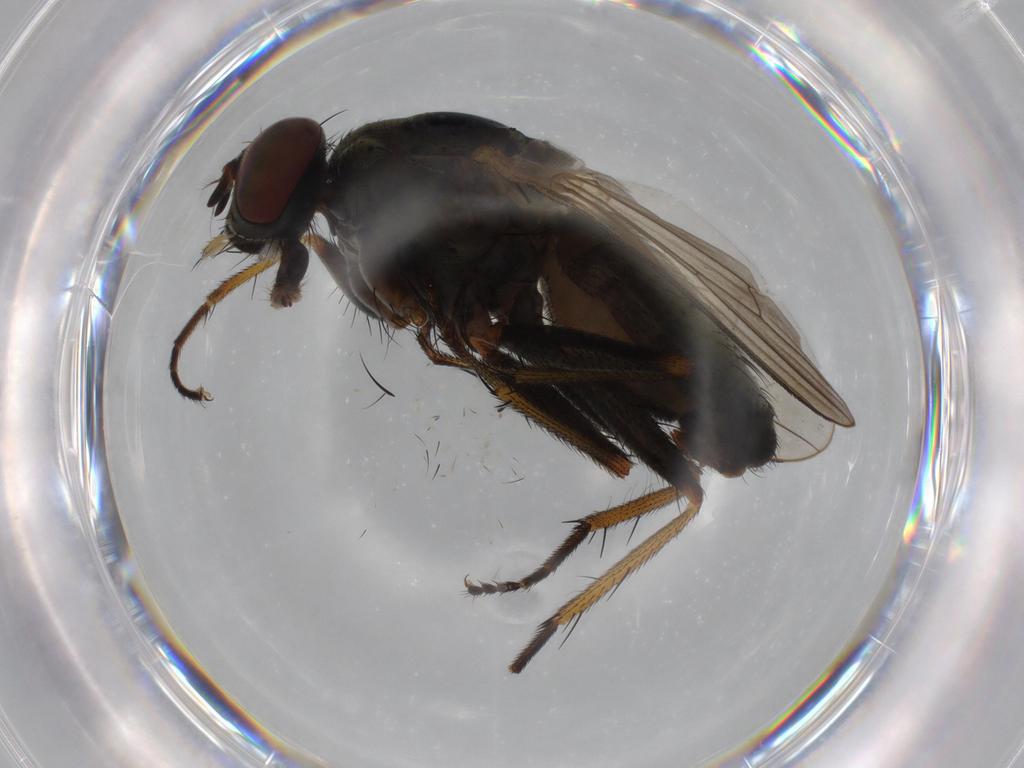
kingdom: Animalia
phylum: Arthropoda
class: Insecta
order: Diptera
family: Muscidae
